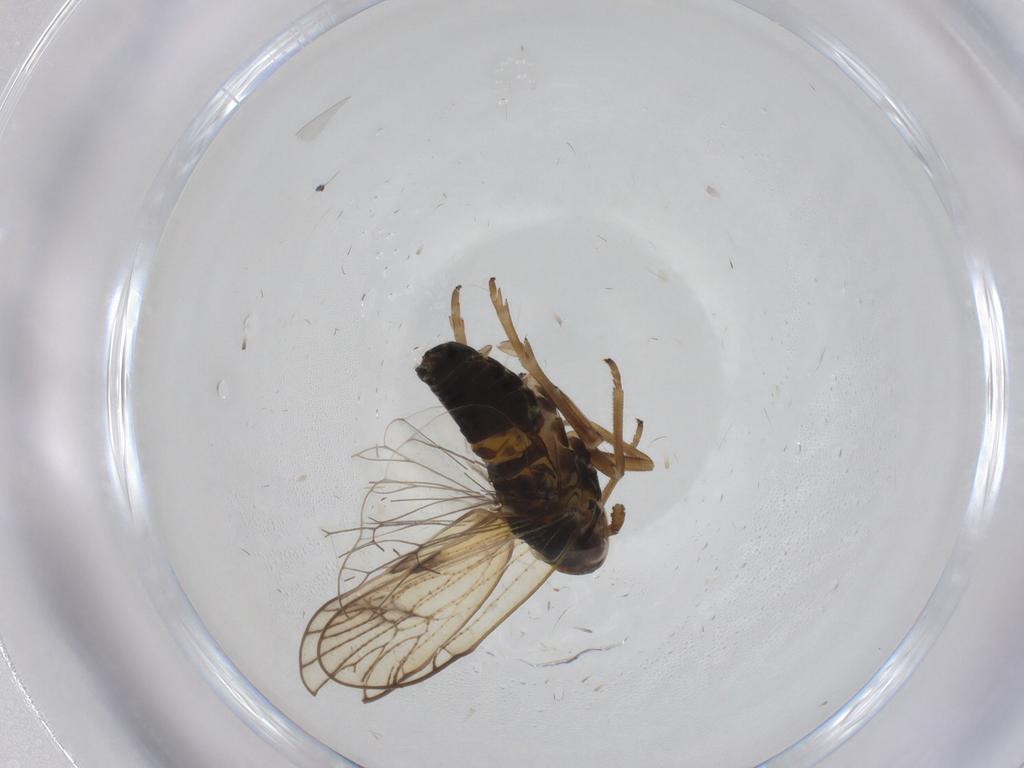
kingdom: Animalia
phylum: Arthropoda
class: Insecta
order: Hemiptera
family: Delphacidae
